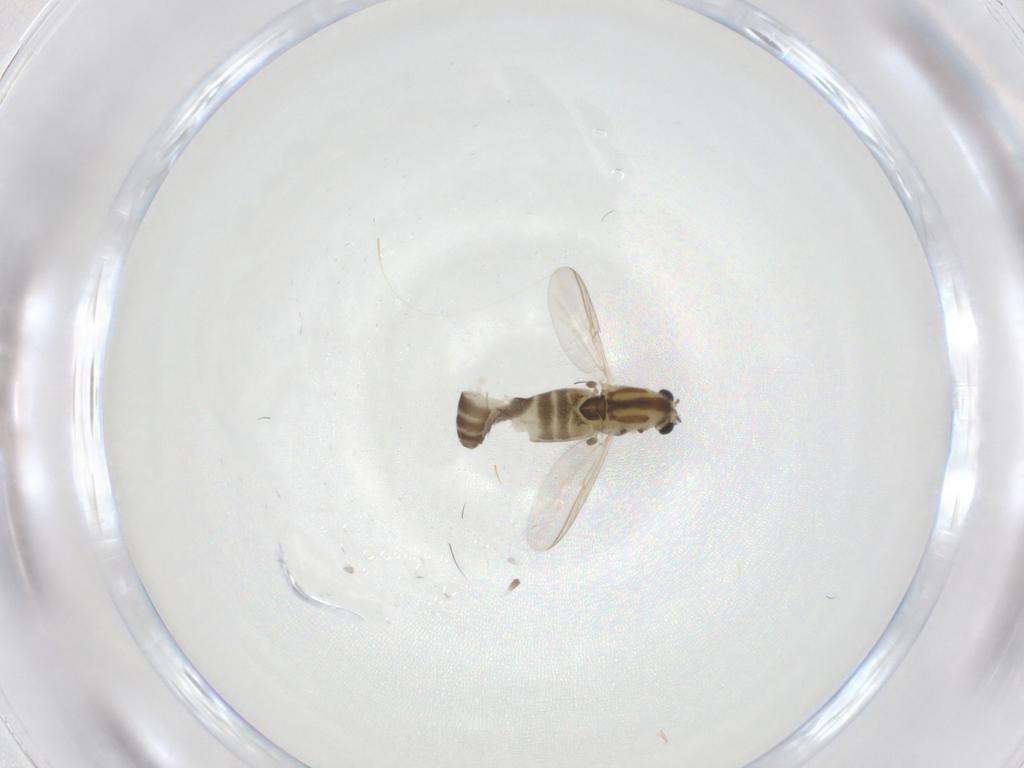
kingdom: Animalia
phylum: Arthropoda
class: Insecta
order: Diptera
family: Chironomidae
